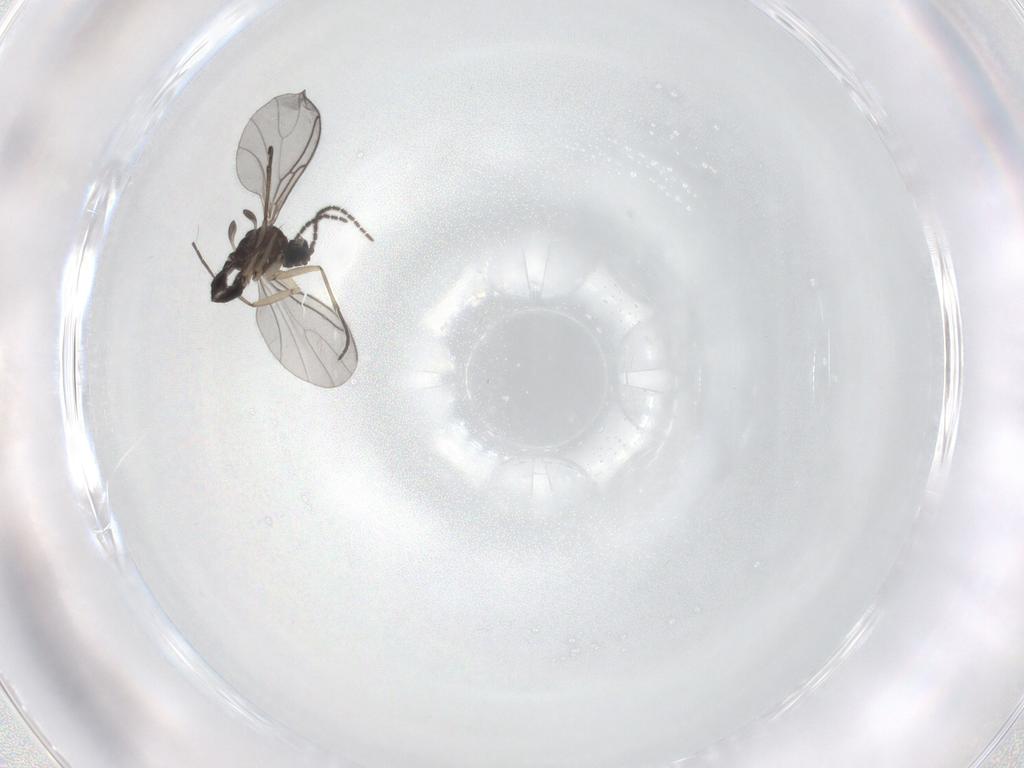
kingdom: Animalia
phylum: Arthropoda
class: Insecta
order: Diptera
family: Sciaridae
